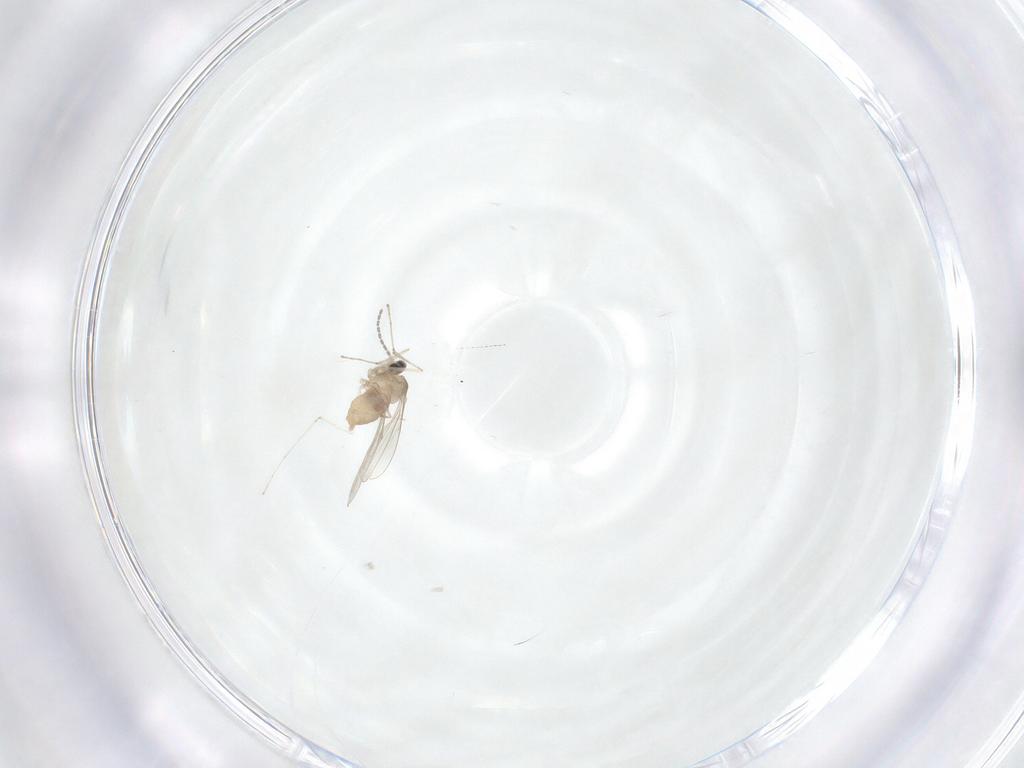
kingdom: Animalia
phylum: Arthropoda
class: Insecta
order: Diptera
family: Cecidomyiidae
